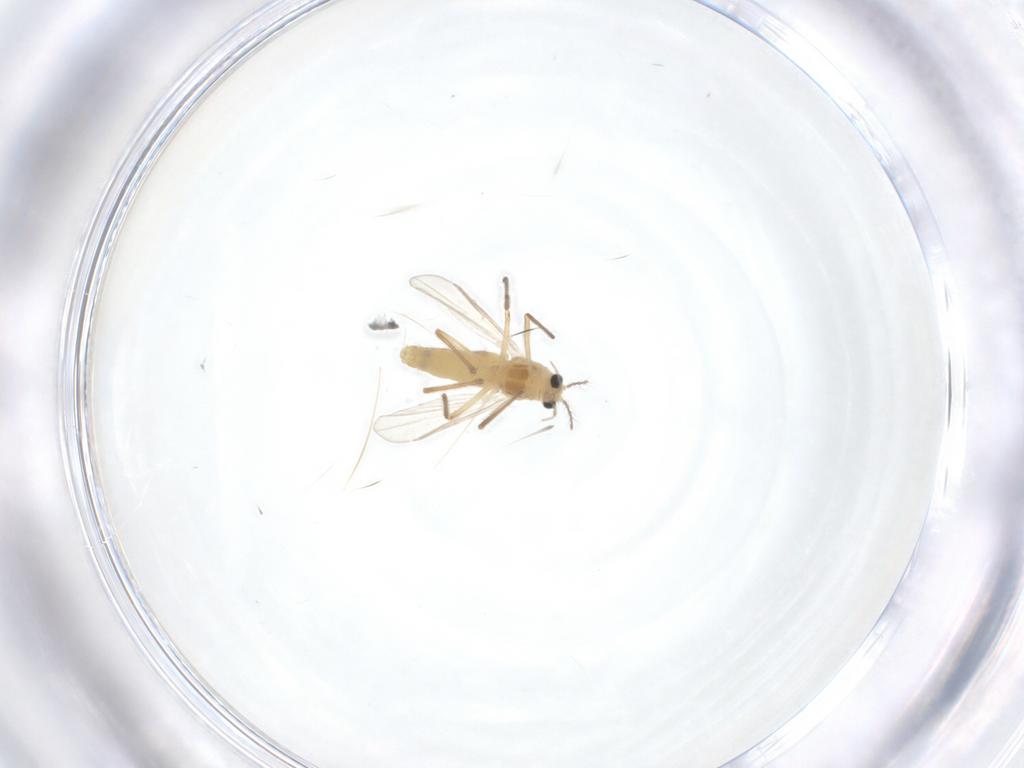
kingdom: Animalia
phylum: Arthropoda
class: Insecta
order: Diptera
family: Chironomidae
